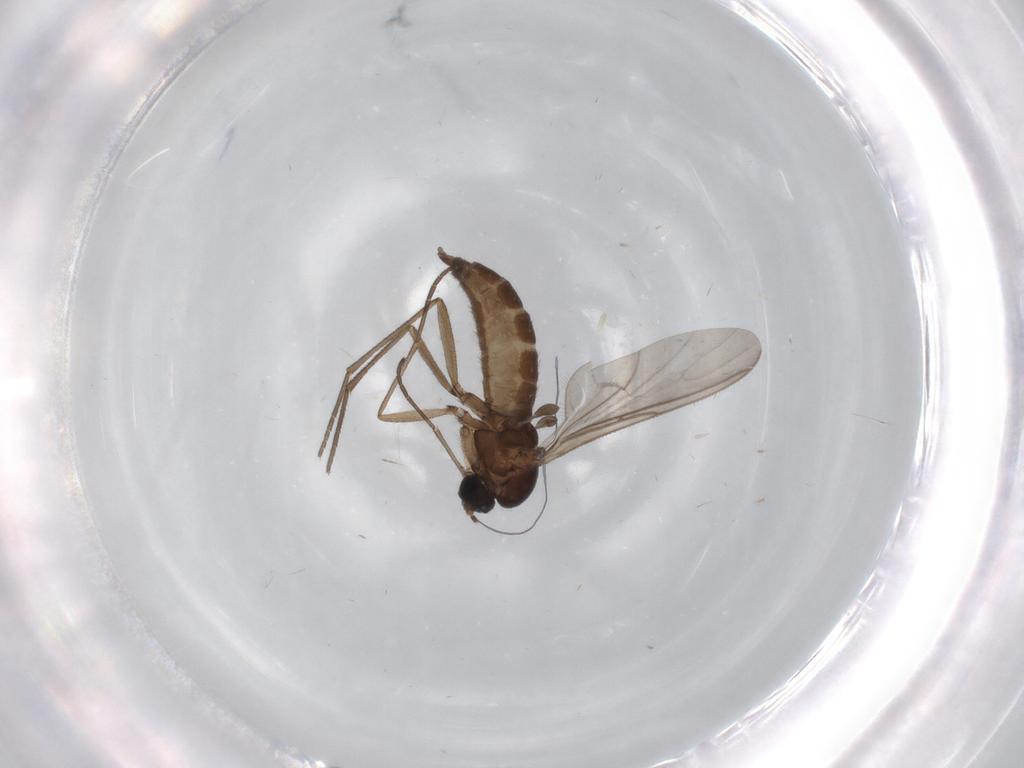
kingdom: Animalia
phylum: Arthropoda
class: Insecta
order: Diptera
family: Sciaridae
